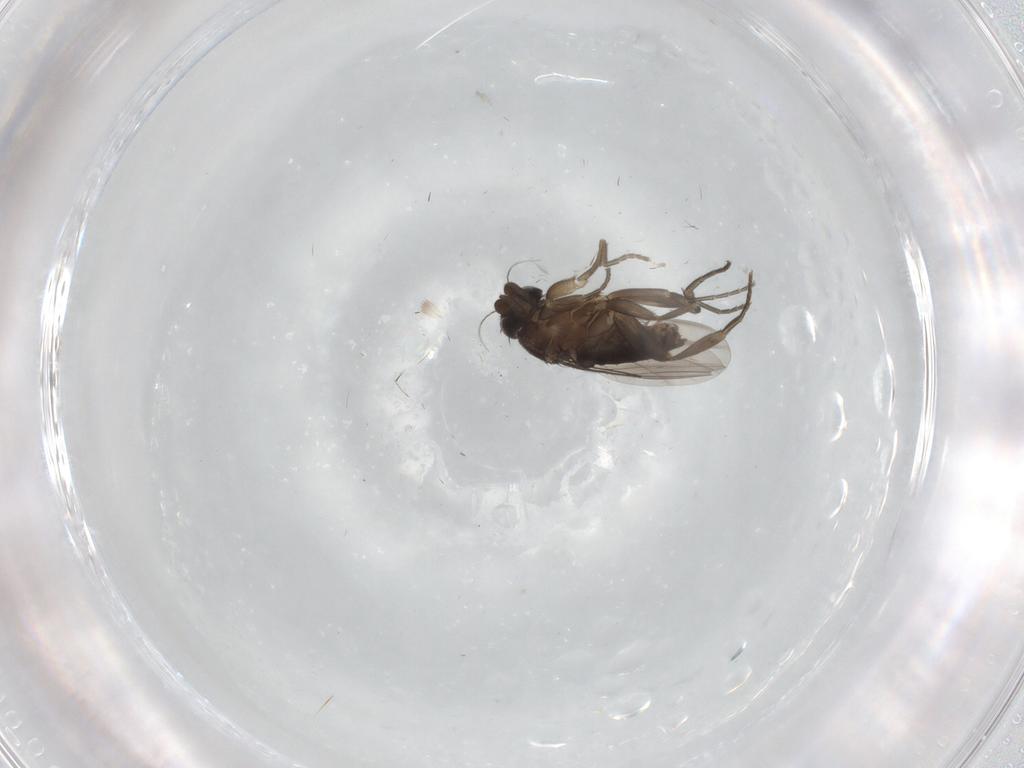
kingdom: Animalia
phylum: Arthropoda
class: Insecta
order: Diptera
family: Phoridae
